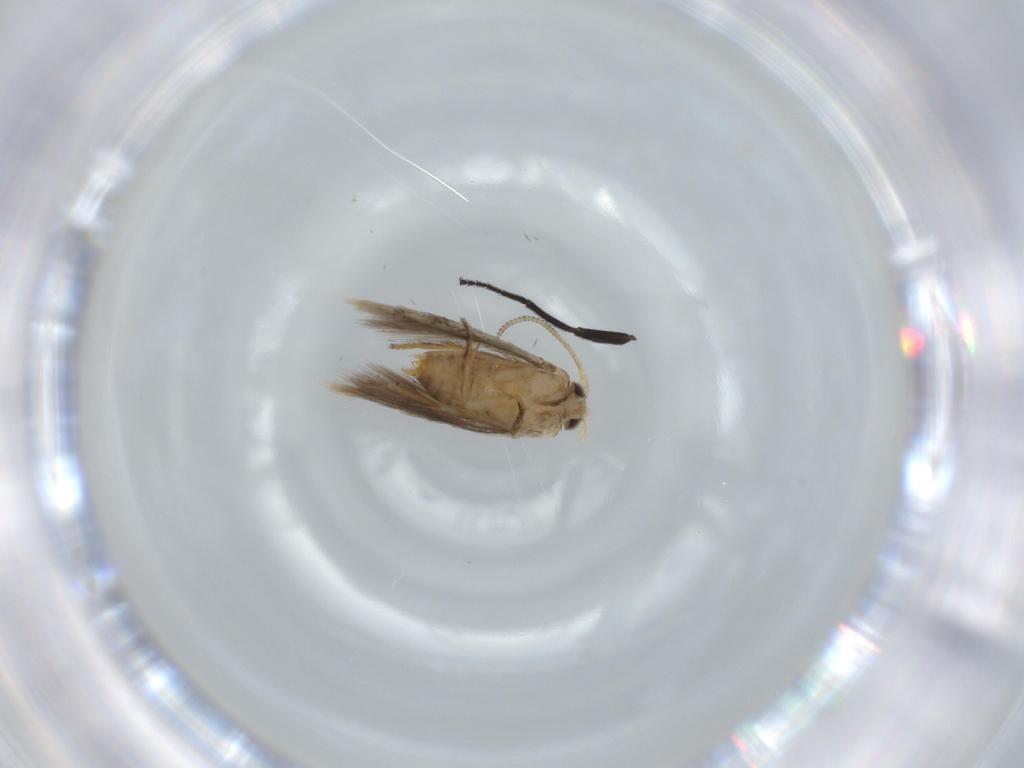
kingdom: Animalia
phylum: Arthropoda
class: Insecta
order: Lepidoptera
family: Nepticulidae
